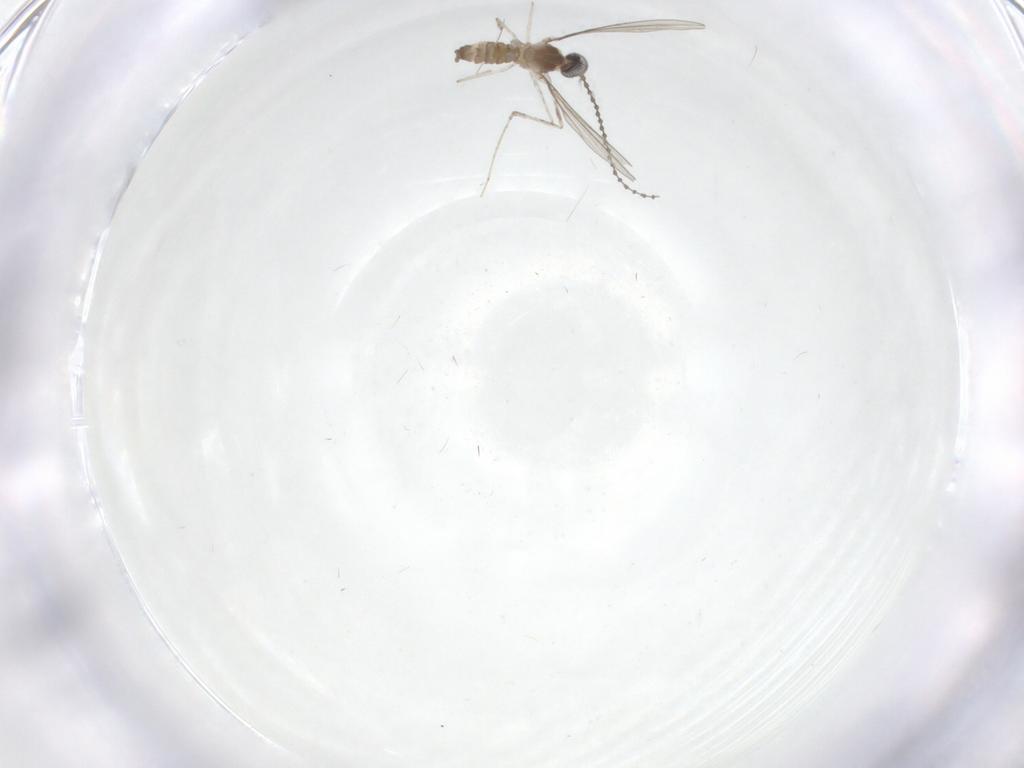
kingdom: Animalia
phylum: Arthropoda
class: Insecta
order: Diptera
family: Cecidomyiidae
